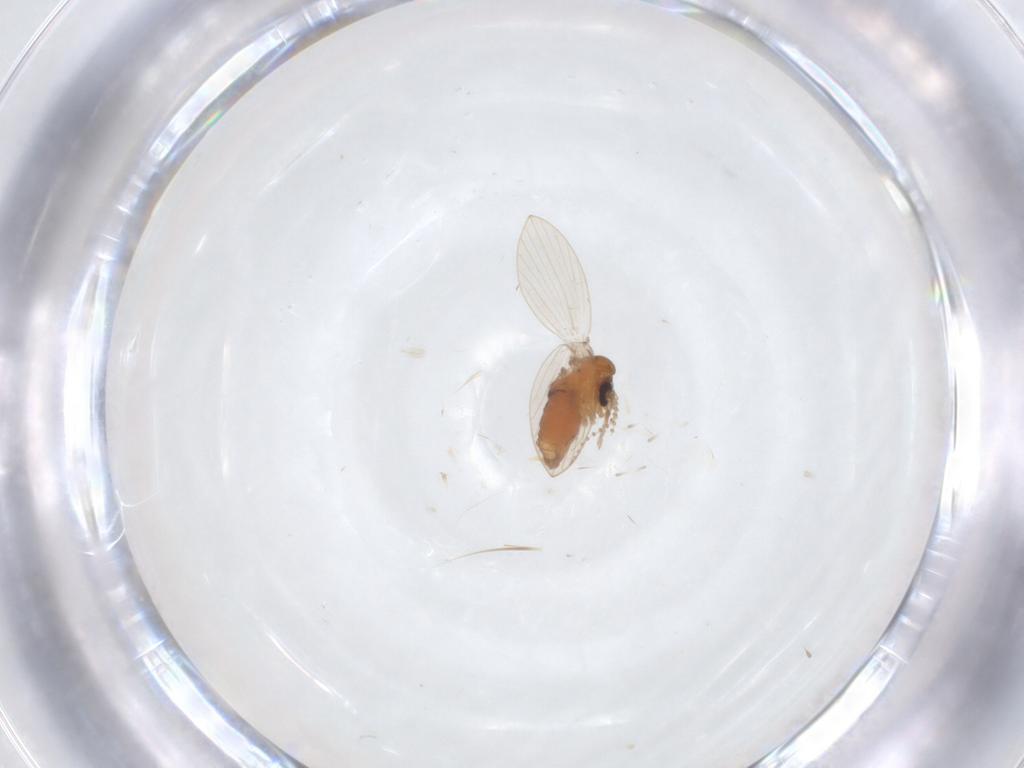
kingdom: Animalia
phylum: Arthropoda
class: Insecta
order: Diptera
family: Psychodidae
